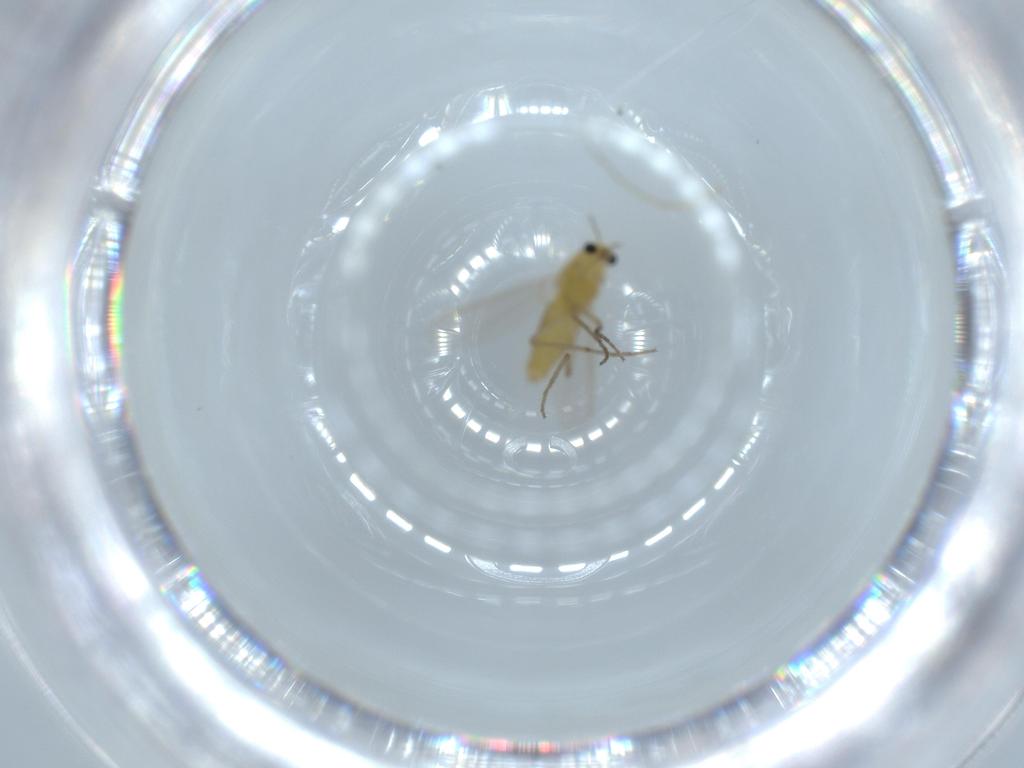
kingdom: Animalia
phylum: Arthropoda
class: Insecta
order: Diptera
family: Chironomidae
